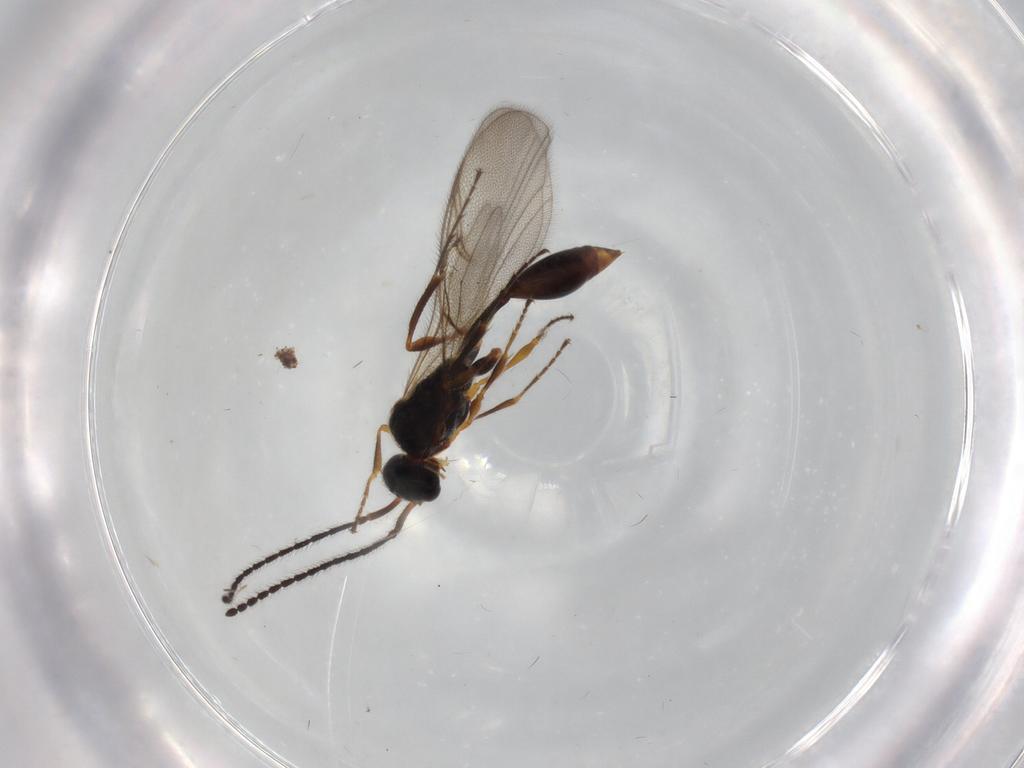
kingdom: Animalia
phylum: Arthropoda
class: Insecta
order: Hymenoptera
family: Diapriidae
